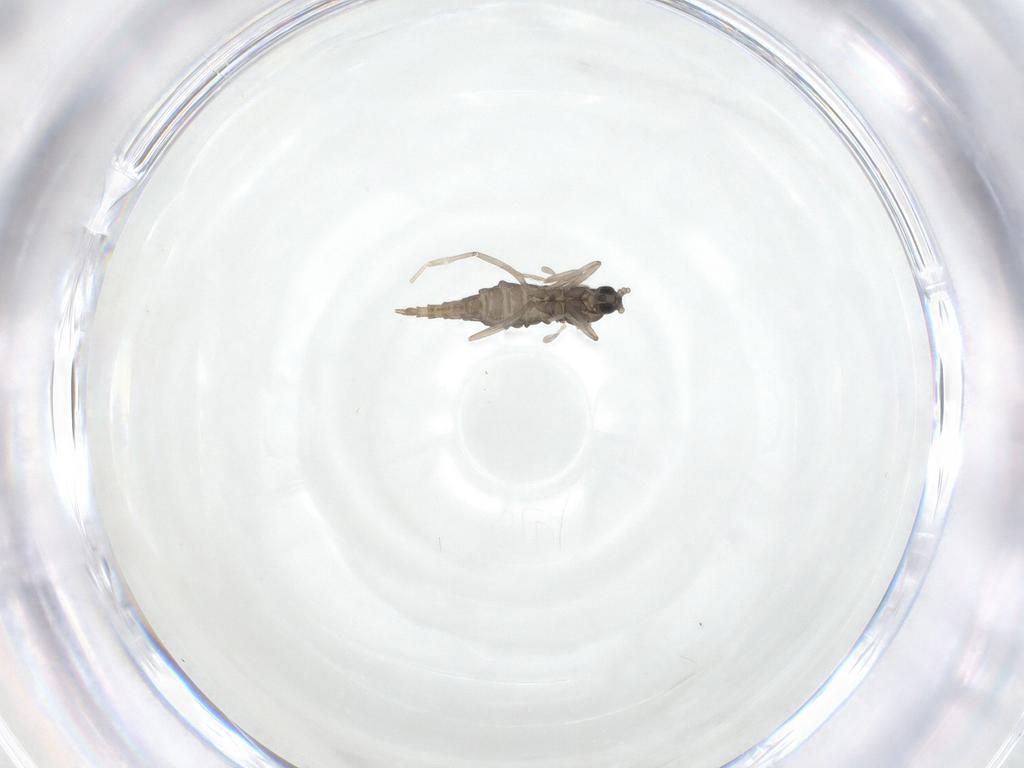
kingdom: Animalia
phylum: Arthropoda
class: Insecta
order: Diptera
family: Cecidomyiidae
